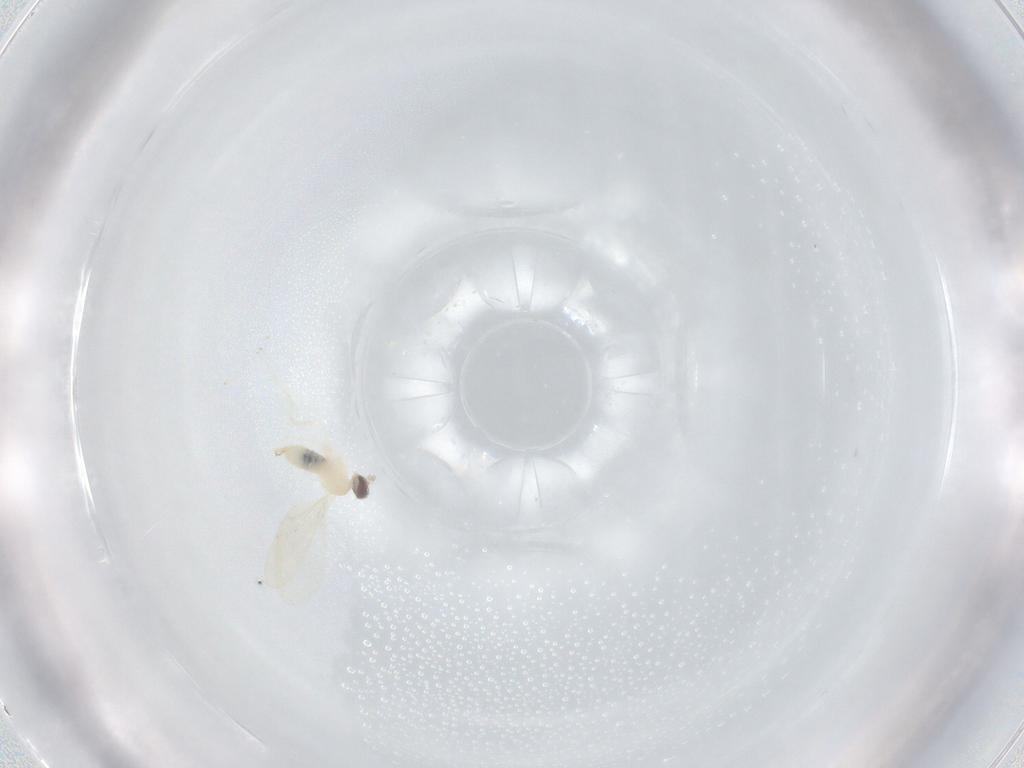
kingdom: Animalia
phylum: Arthropoda
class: Insecta
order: Diptera
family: Cecidomyiidae
